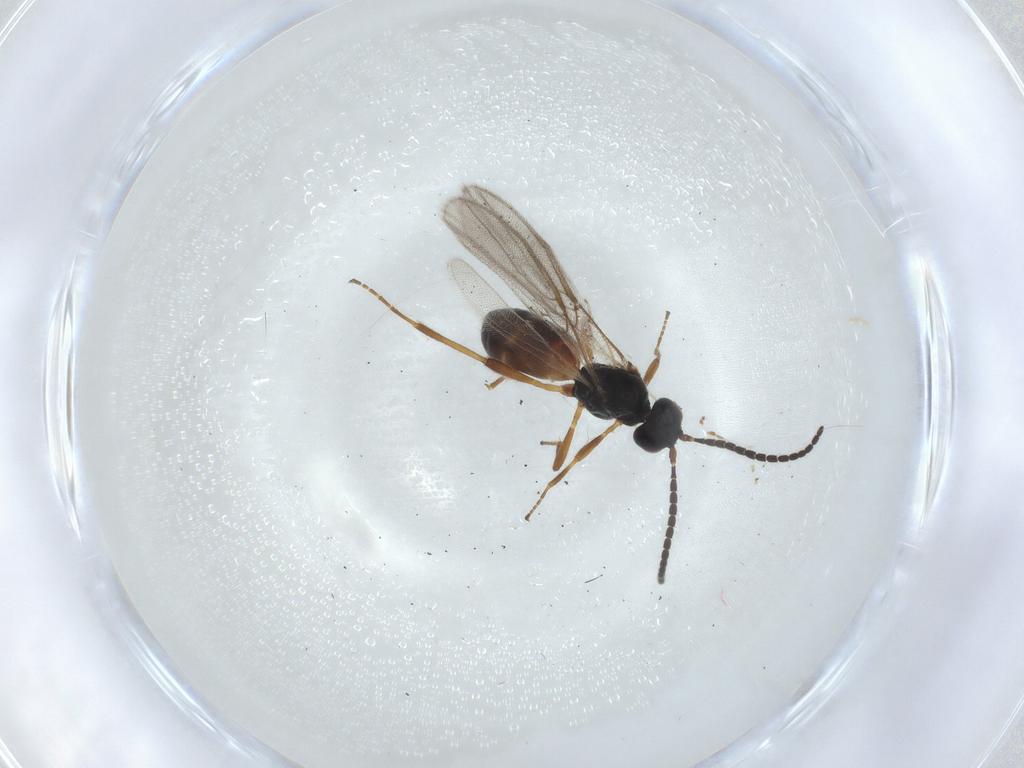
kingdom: Animalia
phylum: Arthropoda
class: Insecta
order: Hymenoptera
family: Braconidae
